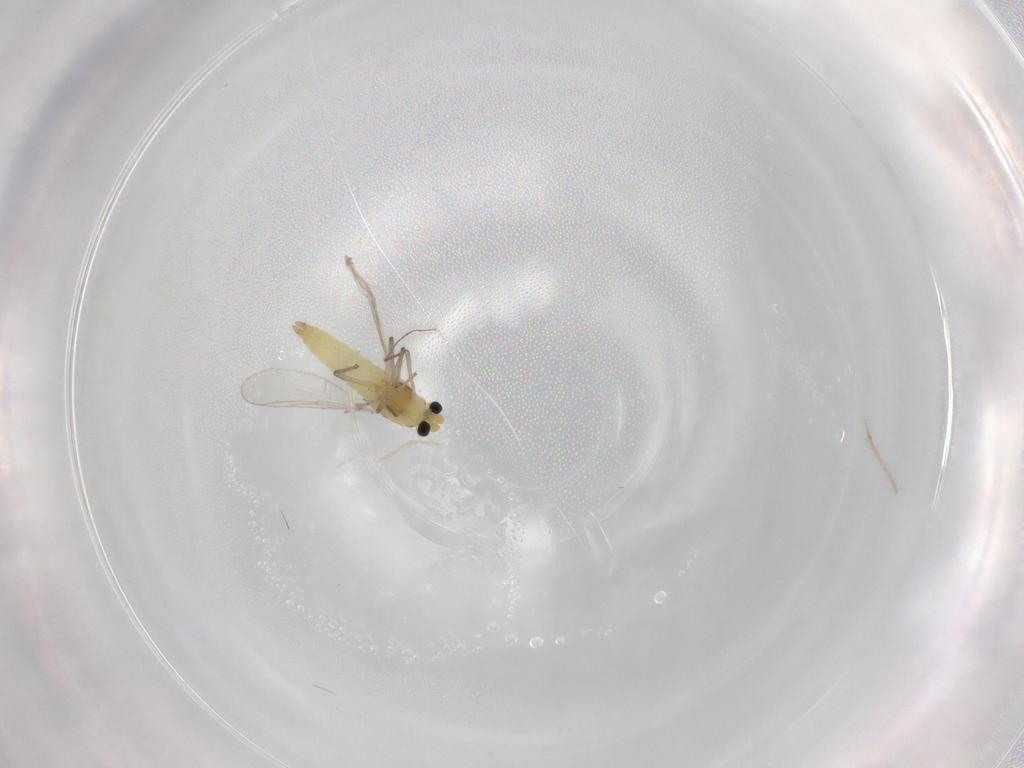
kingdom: Animalia
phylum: Arthropoda
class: Insecta
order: Diptera
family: Chironomidae
